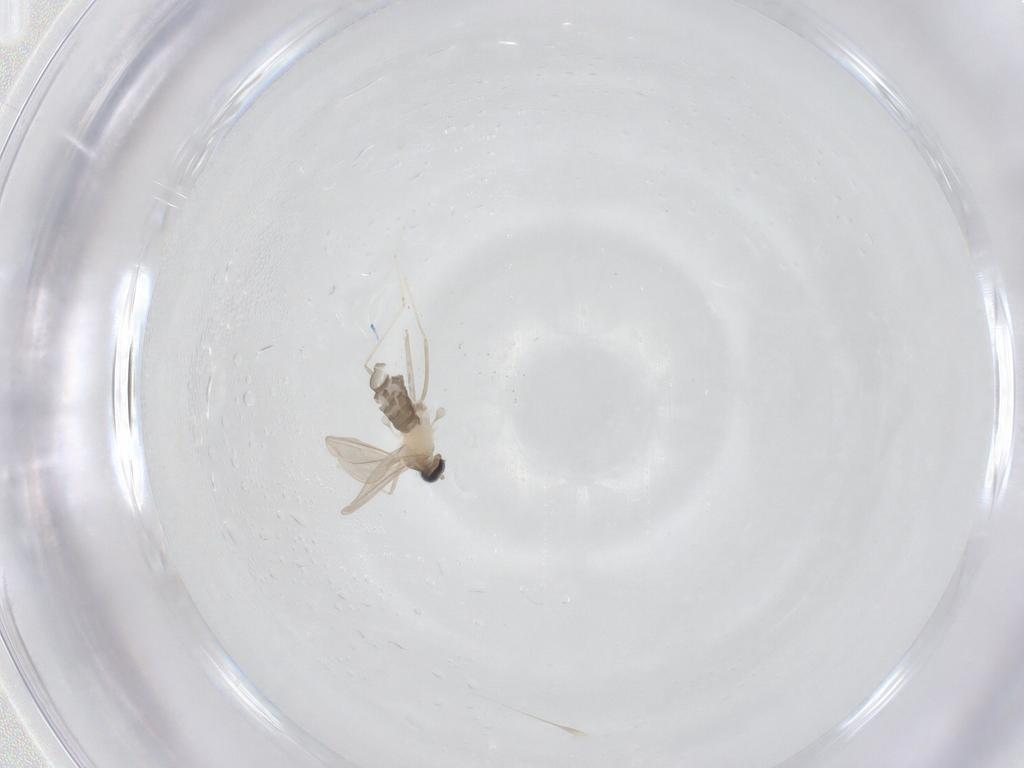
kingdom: Animalia
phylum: Arthropoda
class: Insecta
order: Diptera
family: Cecidomyiidae
